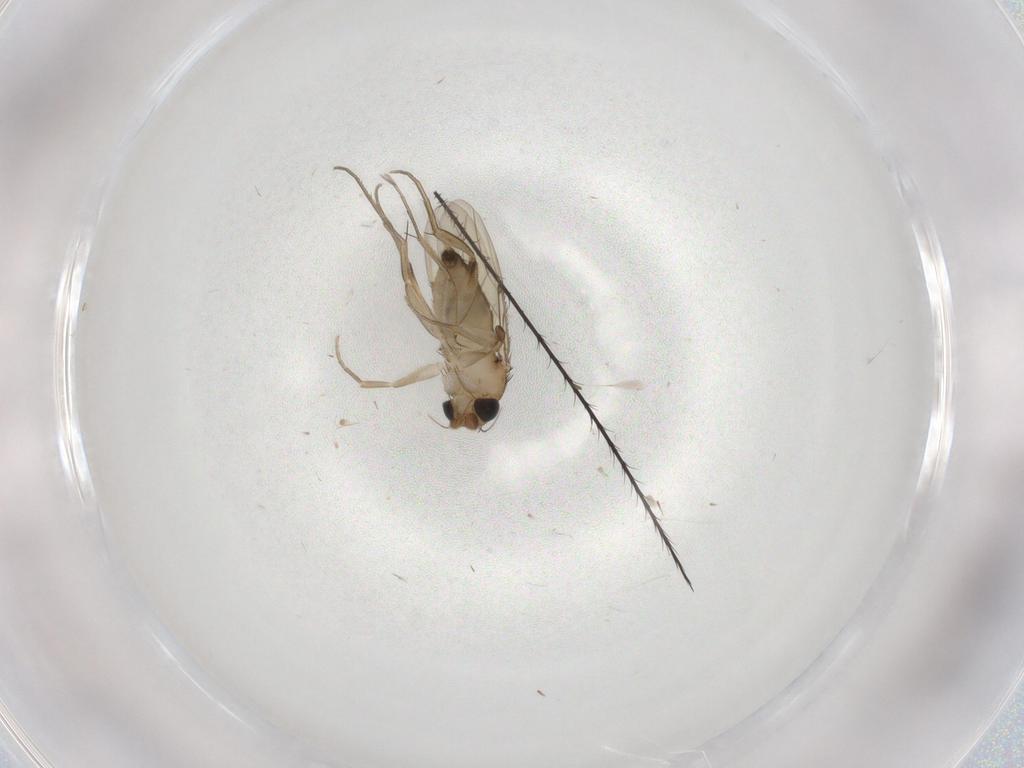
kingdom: Animalia
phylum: Arthropoda
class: Insecta
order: Diptera
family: Phoridae
